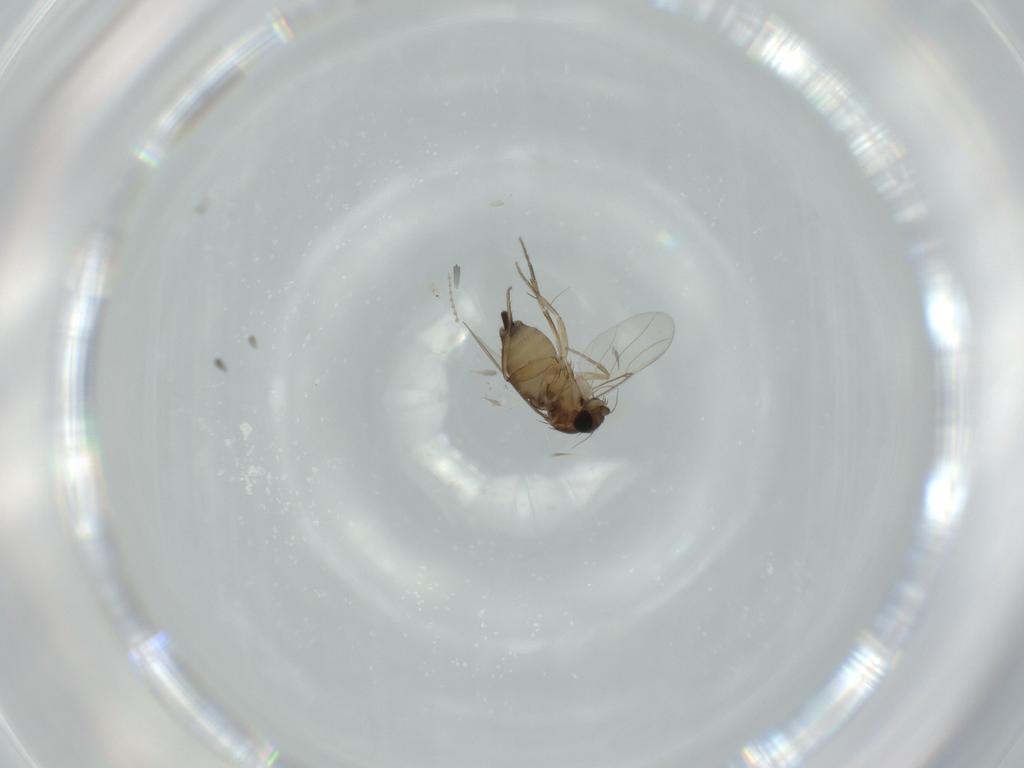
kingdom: Animalia
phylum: Arthropoda
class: Insecta
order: Diptera
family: Phoridae
